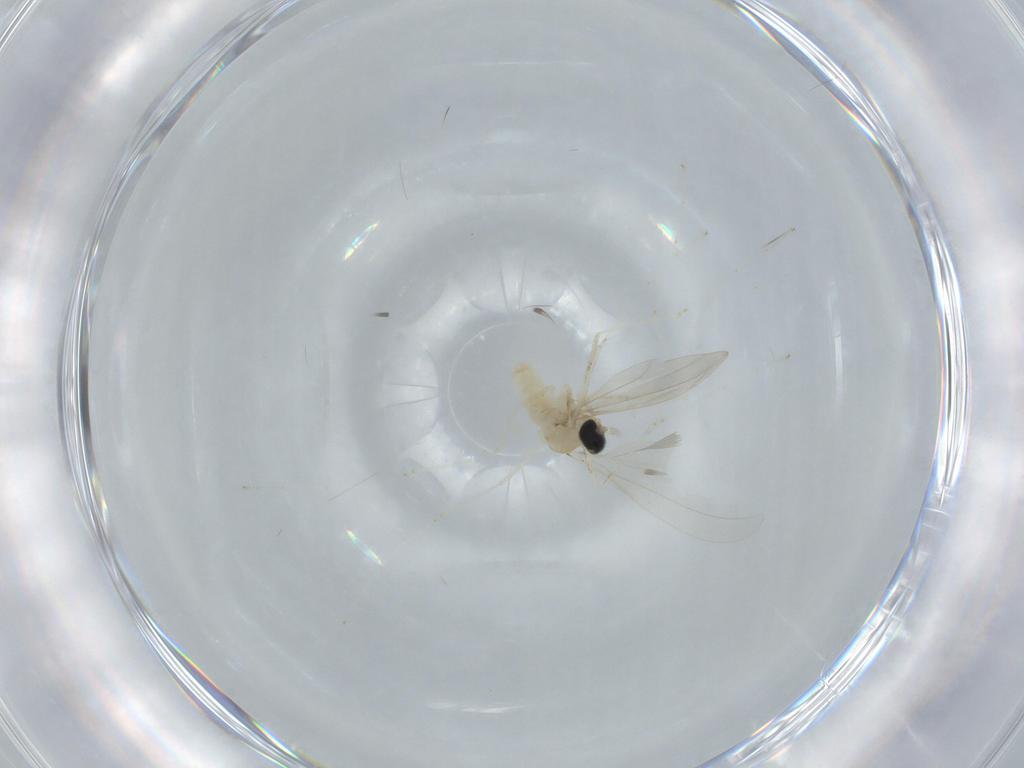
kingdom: Animalia
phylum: Arthropoda
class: Insecta
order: Diptera
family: Cecidomyiidae
